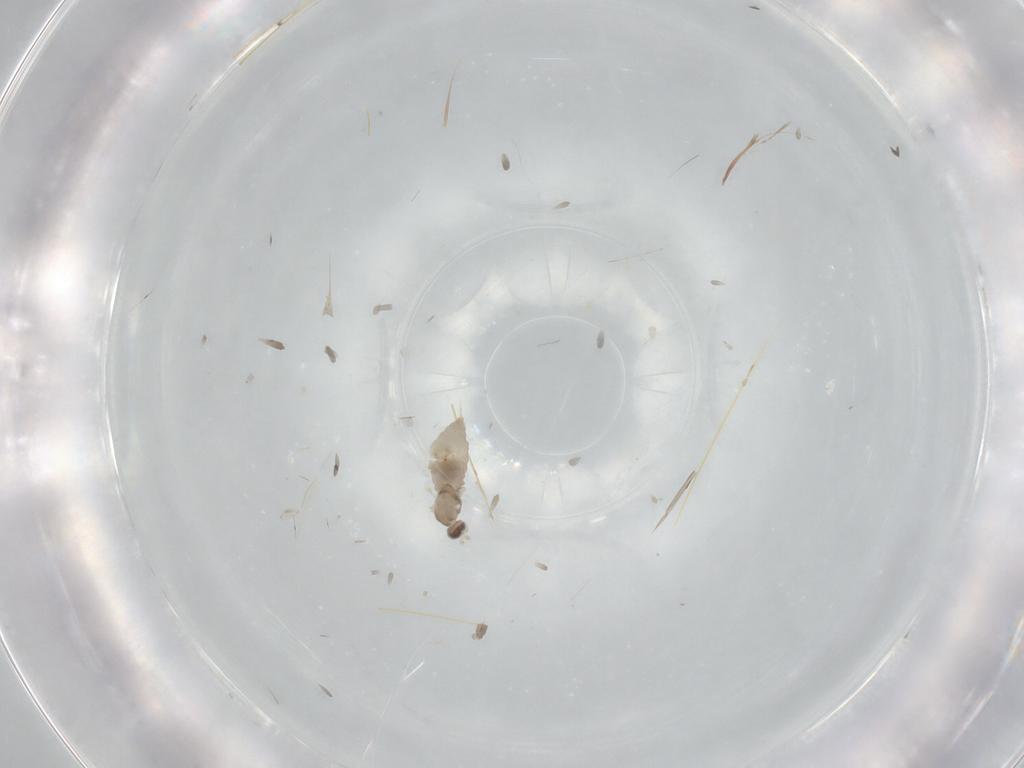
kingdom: Animalia
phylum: Arthropoda
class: Insecta
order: Diptera
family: Cecidomyiidae
